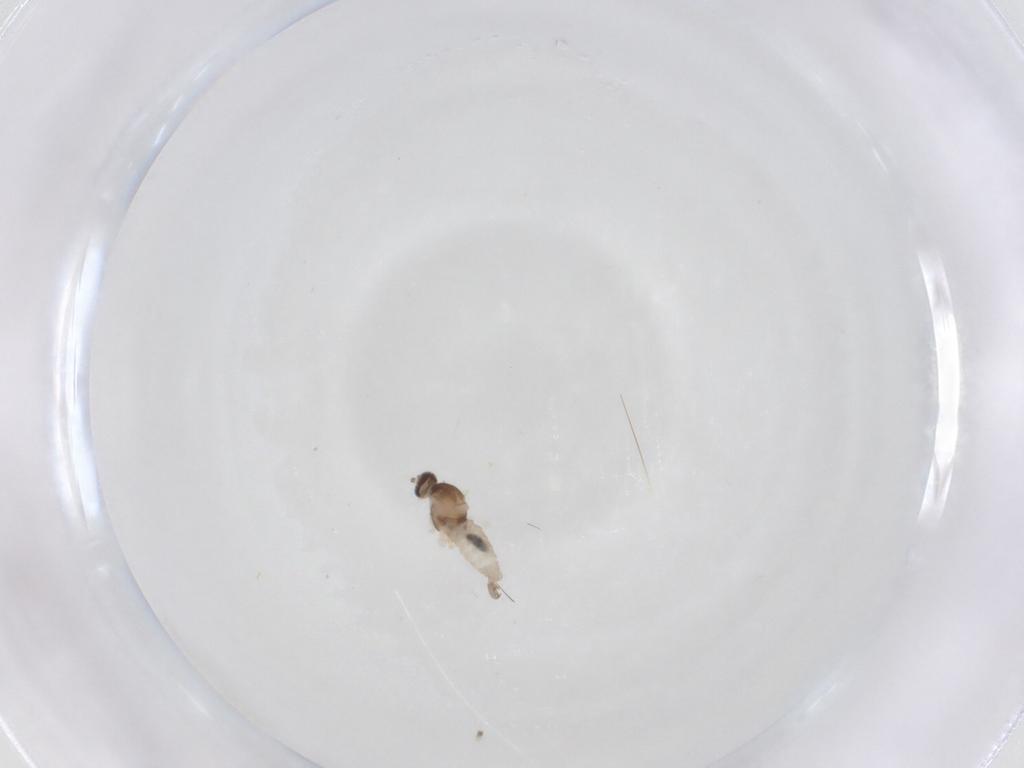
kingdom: Animalia
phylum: Arthropoda
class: Insecta
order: Diptera
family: Cecidomyiidae
